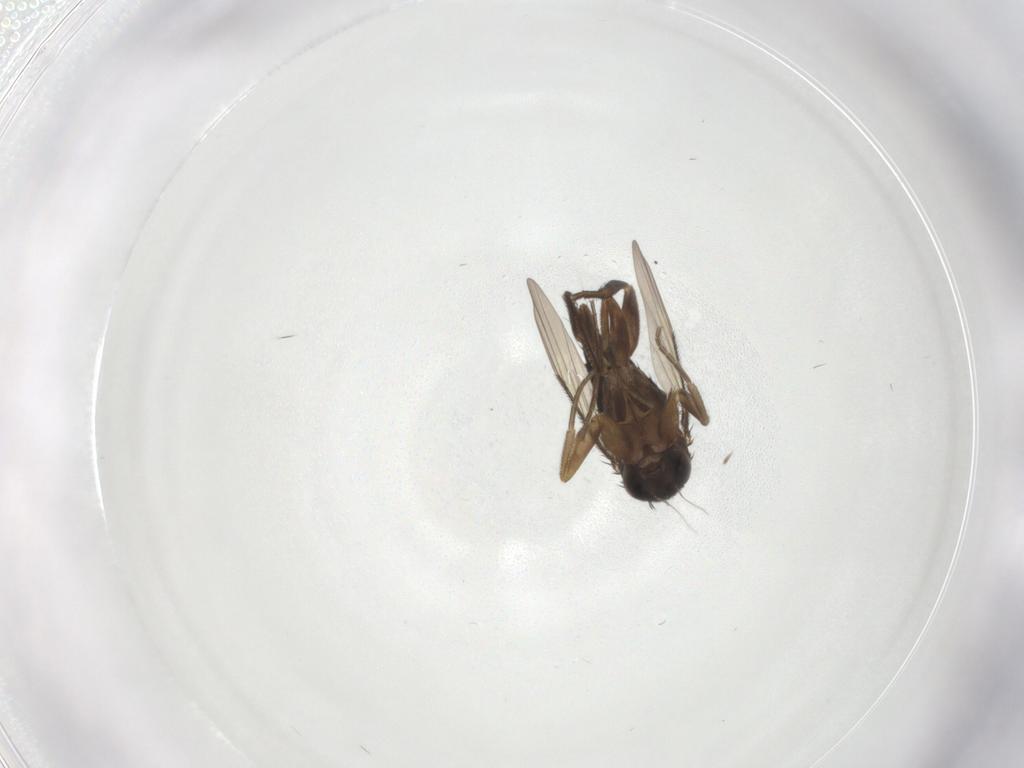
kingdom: Animalia
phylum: Arthropoda
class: Insecta
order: Diptera
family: Phoridae
